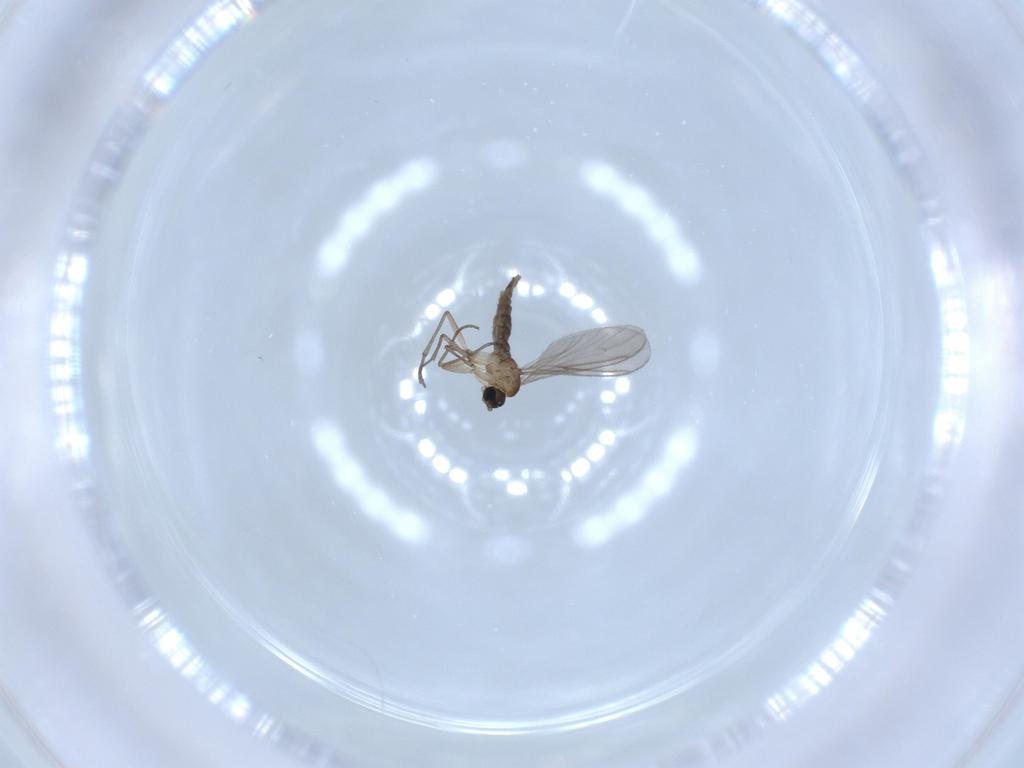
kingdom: Animalia
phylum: Arthropoda
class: Insecta
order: Diptera
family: Sciaridae
